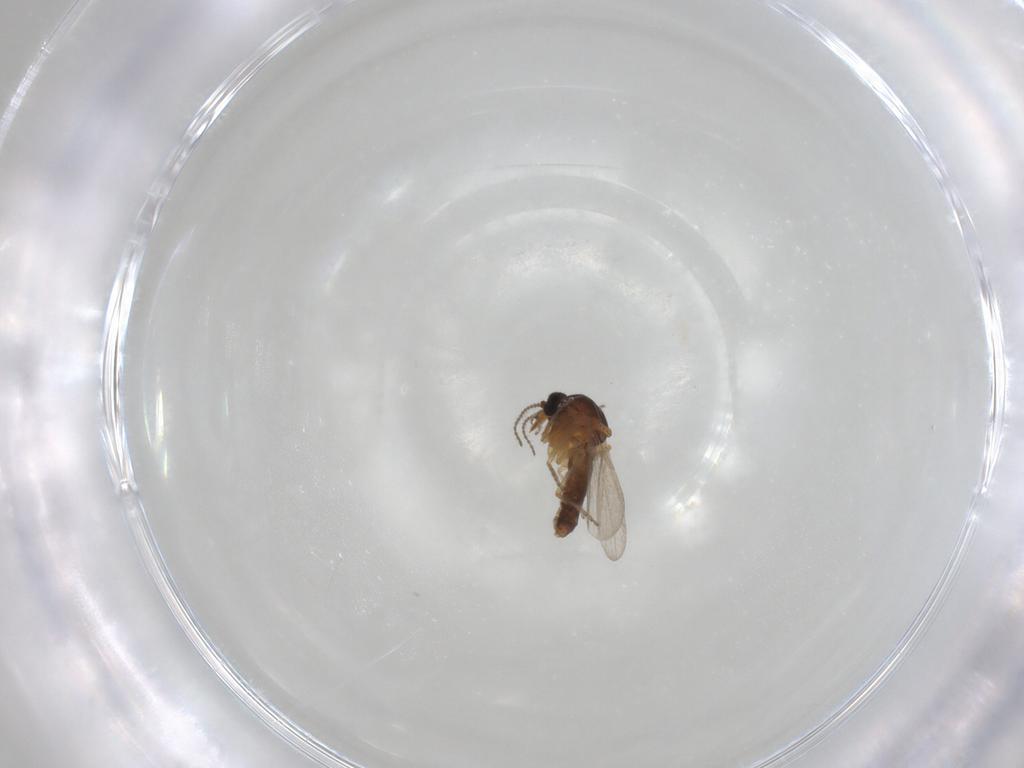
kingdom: Animalia
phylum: Arthropoda
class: Insecta
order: Diptera
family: Ceratopogonidae
